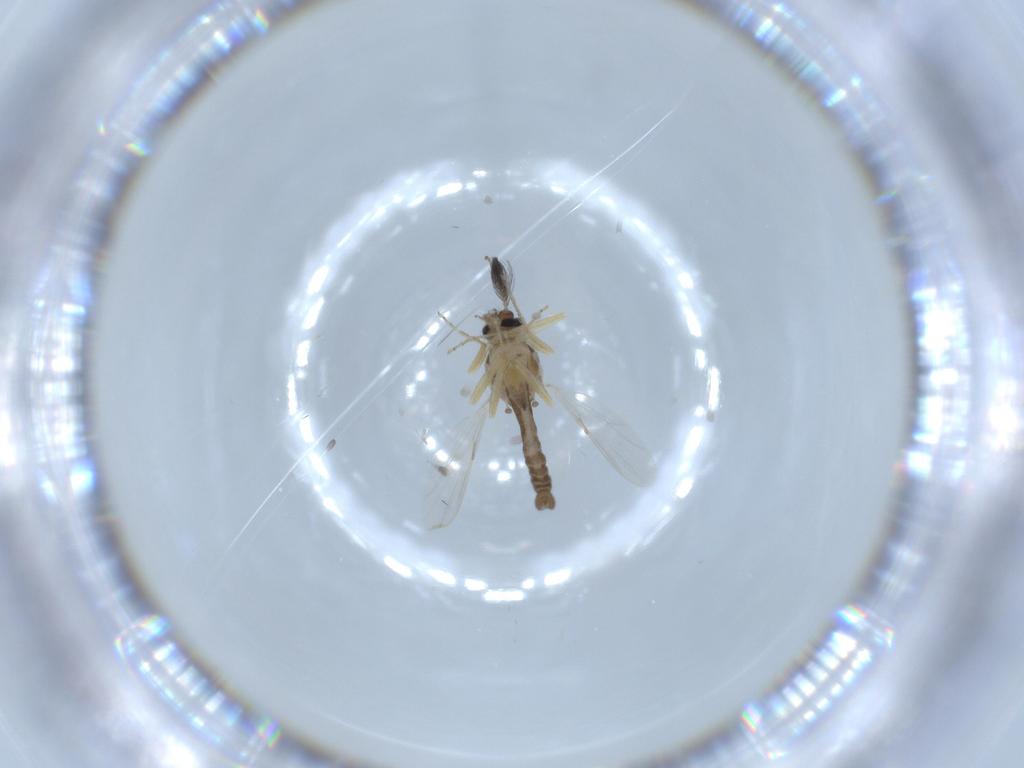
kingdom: Animalia
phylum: Arthropoda
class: Insecta
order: Diptera
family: Ceratopogonidae
